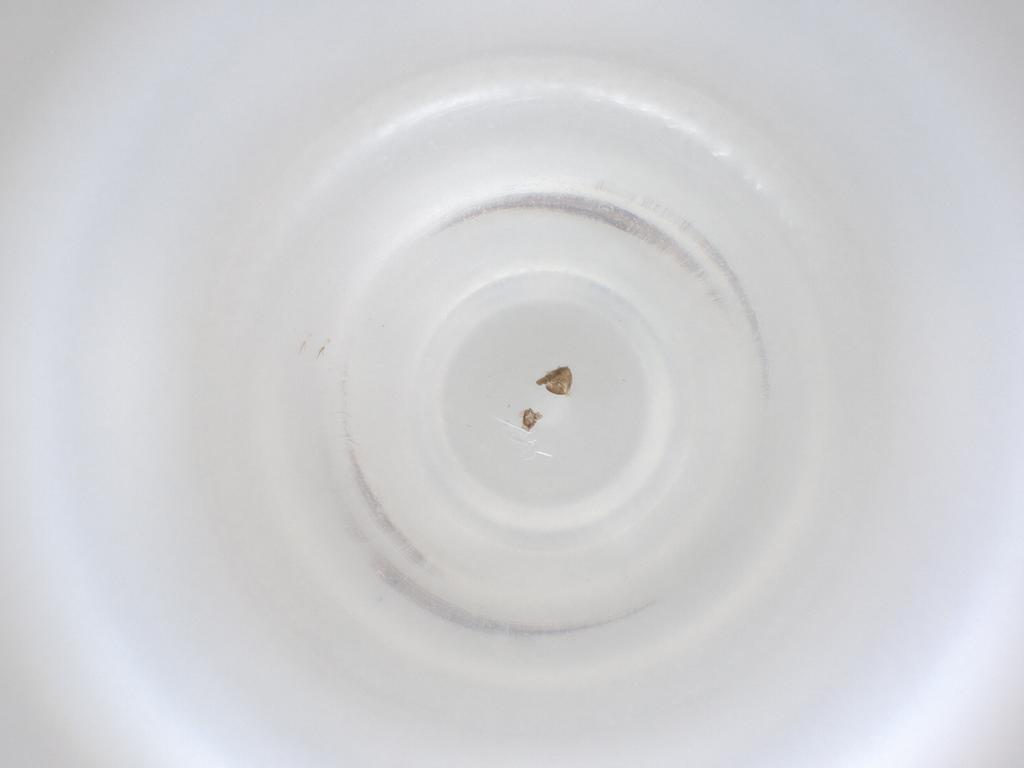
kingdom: Animalia
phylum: Arthropoda
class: Insecta
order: Diptera
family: Cecidomyiidae
